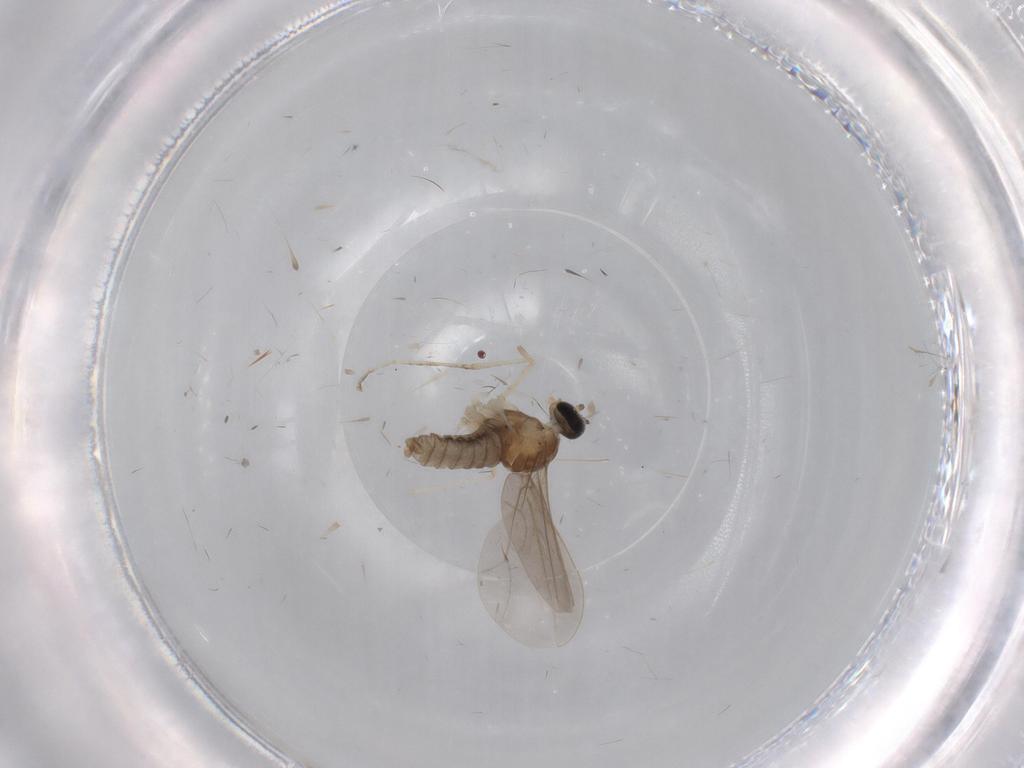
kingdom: Animalia
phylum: Arthropoda
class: Insecta
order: Diptera
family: Cecidomyiidae
